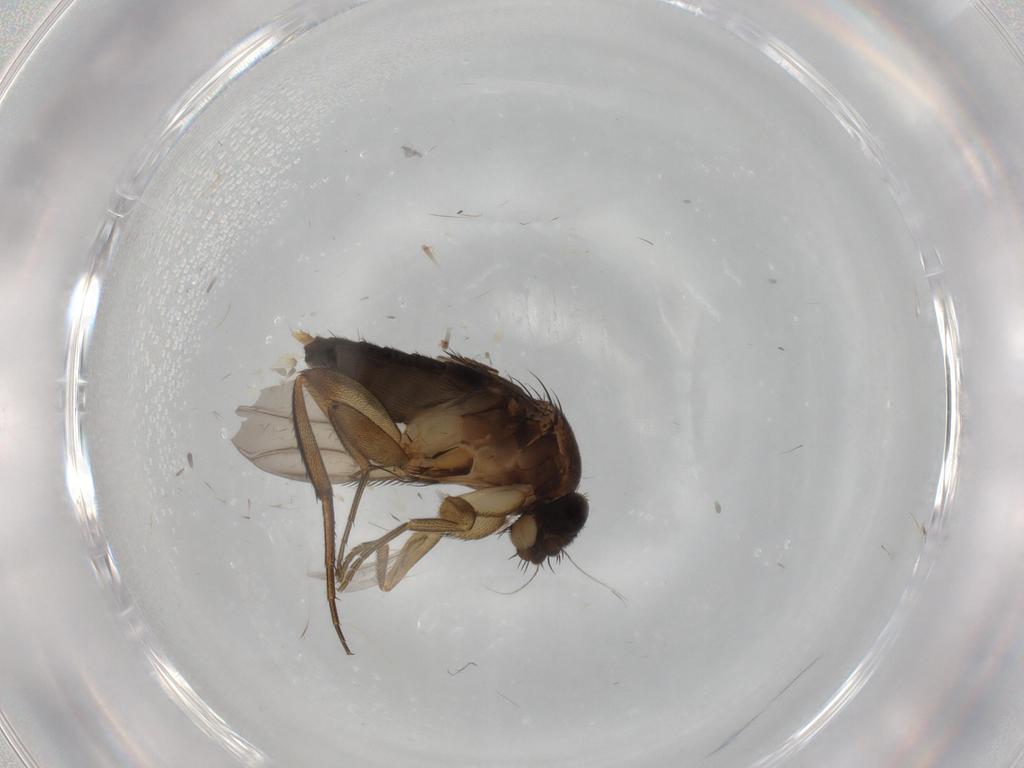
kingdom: Animalia
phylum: Arthropoda
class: Insecta
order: Diptera
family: Phoridae
